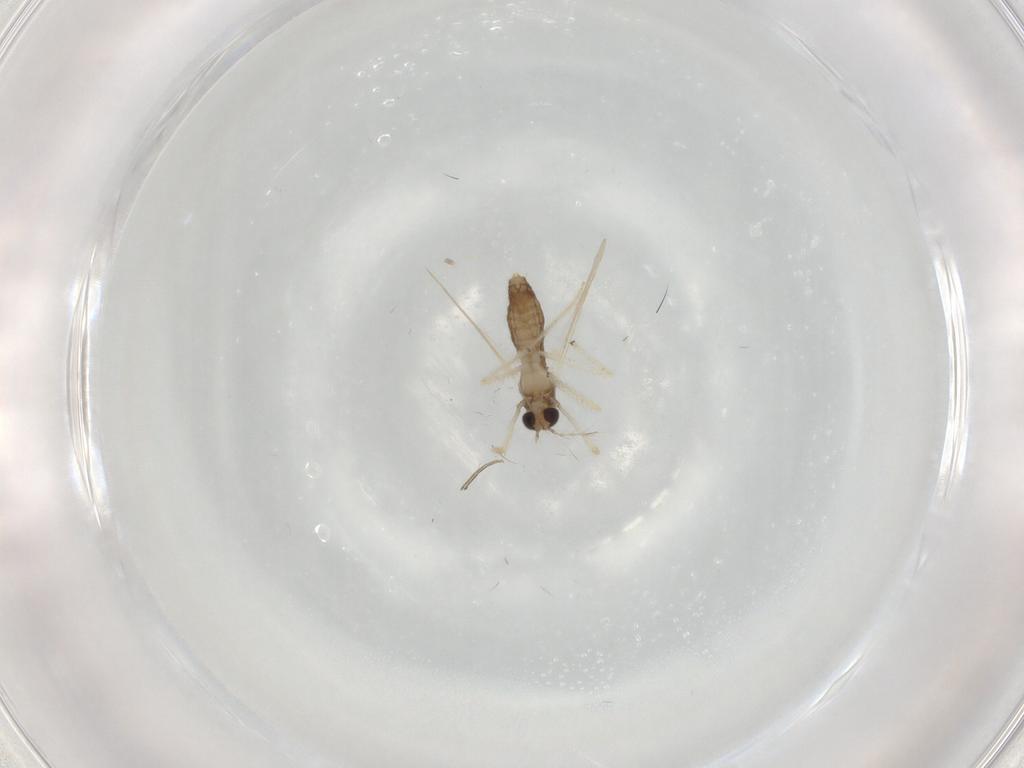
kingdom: Animalia
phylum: Arthropoda
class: Insecta
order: Diptera
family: Chironomidae
